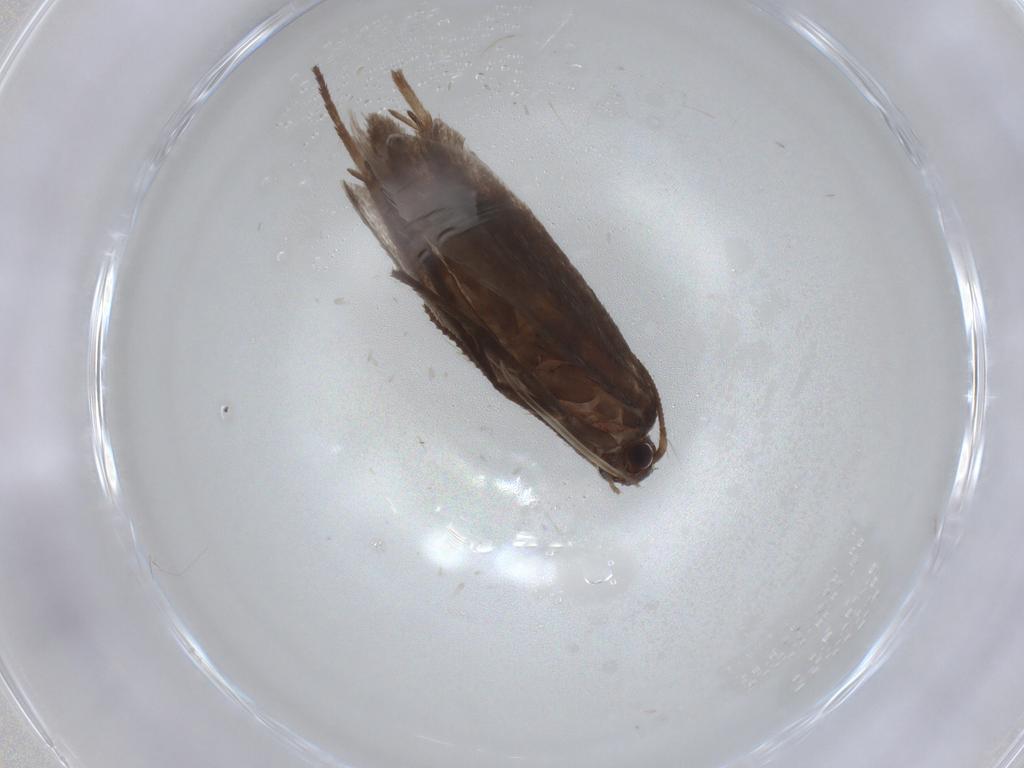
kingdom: Animalia
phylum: Arthropoda
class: Insecta
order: Lepidoptera
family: Limacodidae
